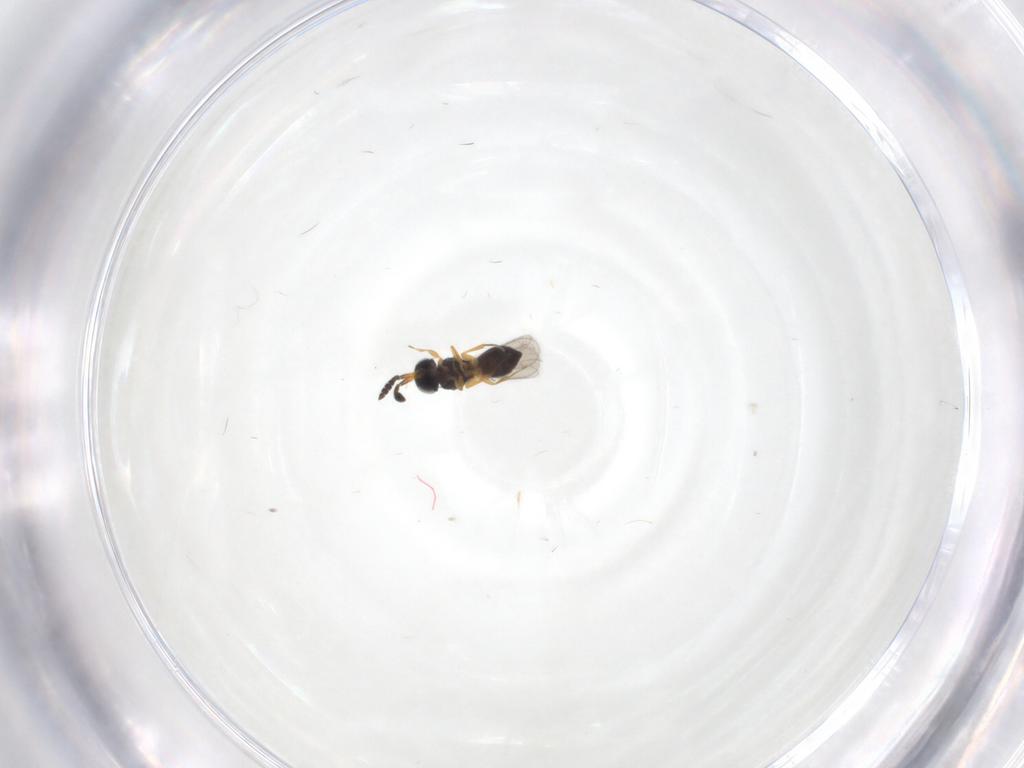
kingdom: Animalia
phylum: Arthropoda
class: Insecta
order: Hymenoptera
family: Scelionidae
